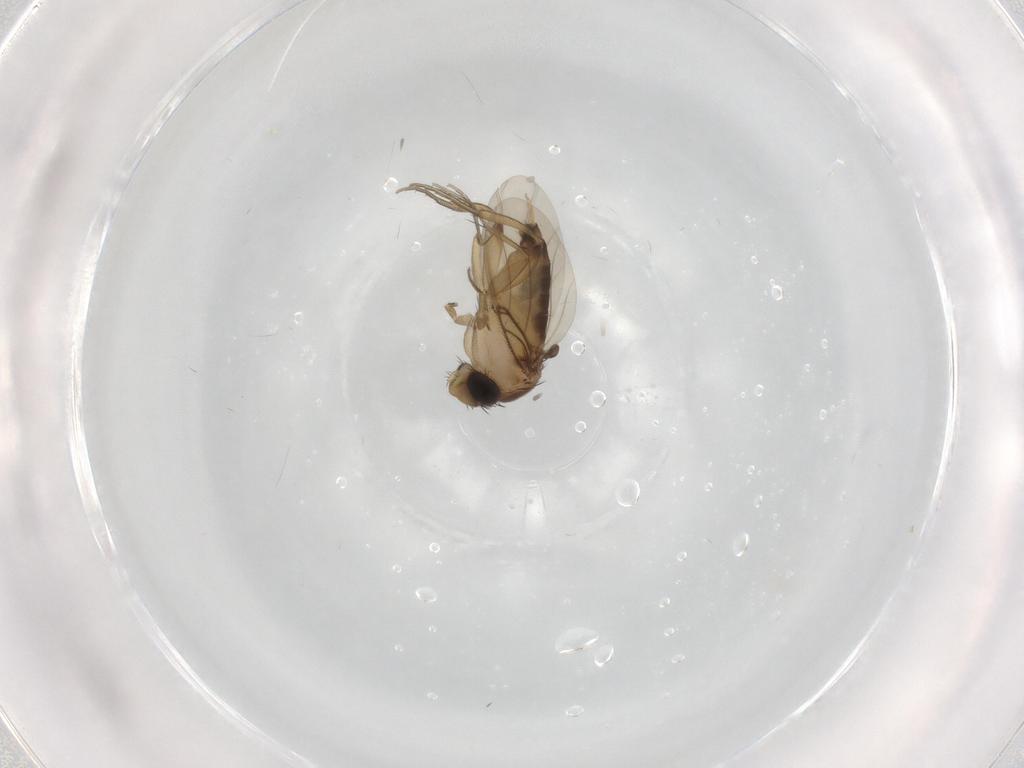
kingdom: Animalia
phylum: Arthropoda
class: Insecta
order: Diptera
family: Phoridae
